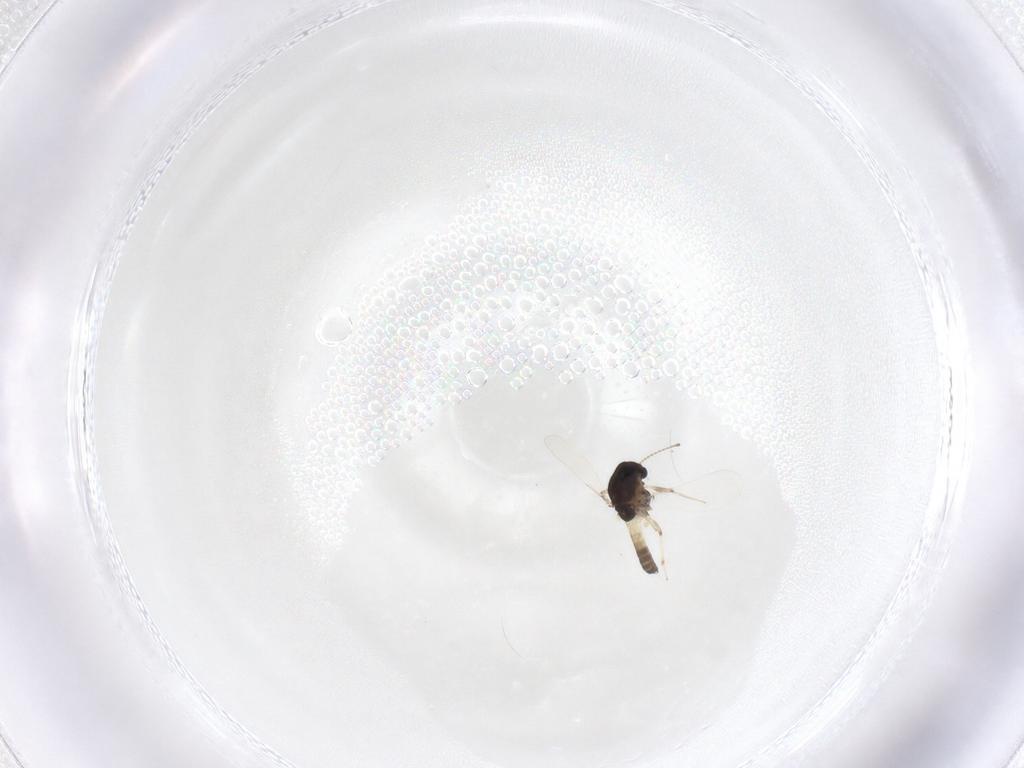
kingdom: Animalia
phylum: Arthropoda
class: Insecta
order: Diptera
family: Chironomidae
